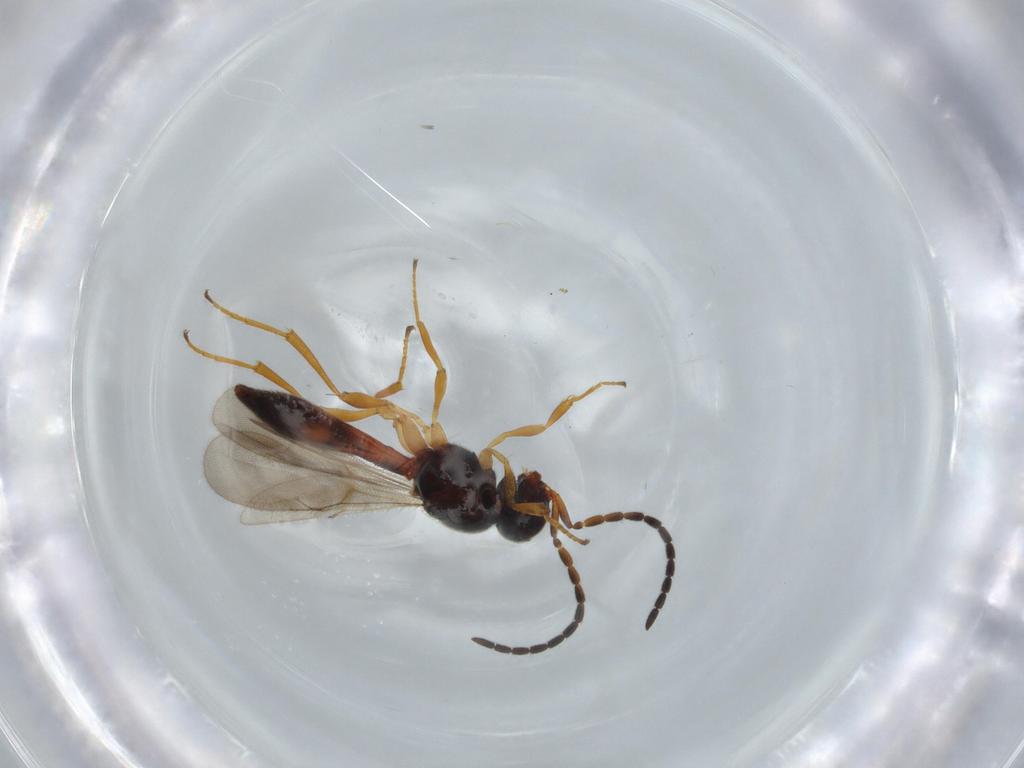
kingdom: Animalia
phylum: Arthropoda
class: Insecta
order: Hymenoptera
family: Scelionidae
